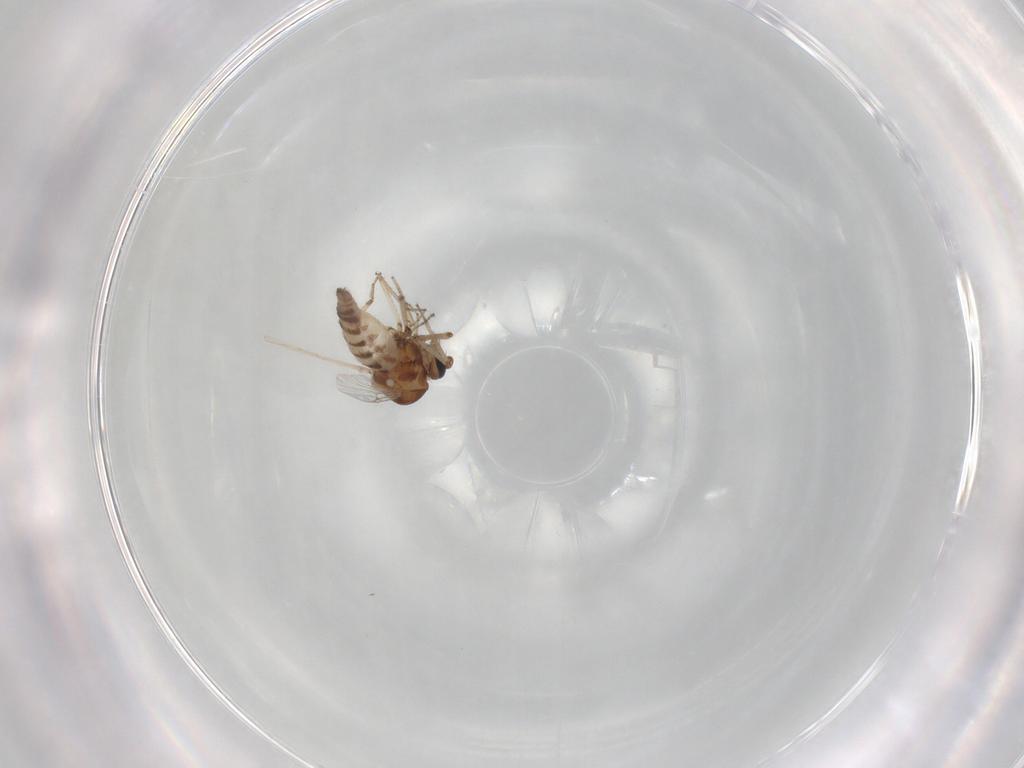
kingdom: Animalia
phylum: Arthropoda
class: Insecta
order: Diptera
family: Ceratopogonidae
